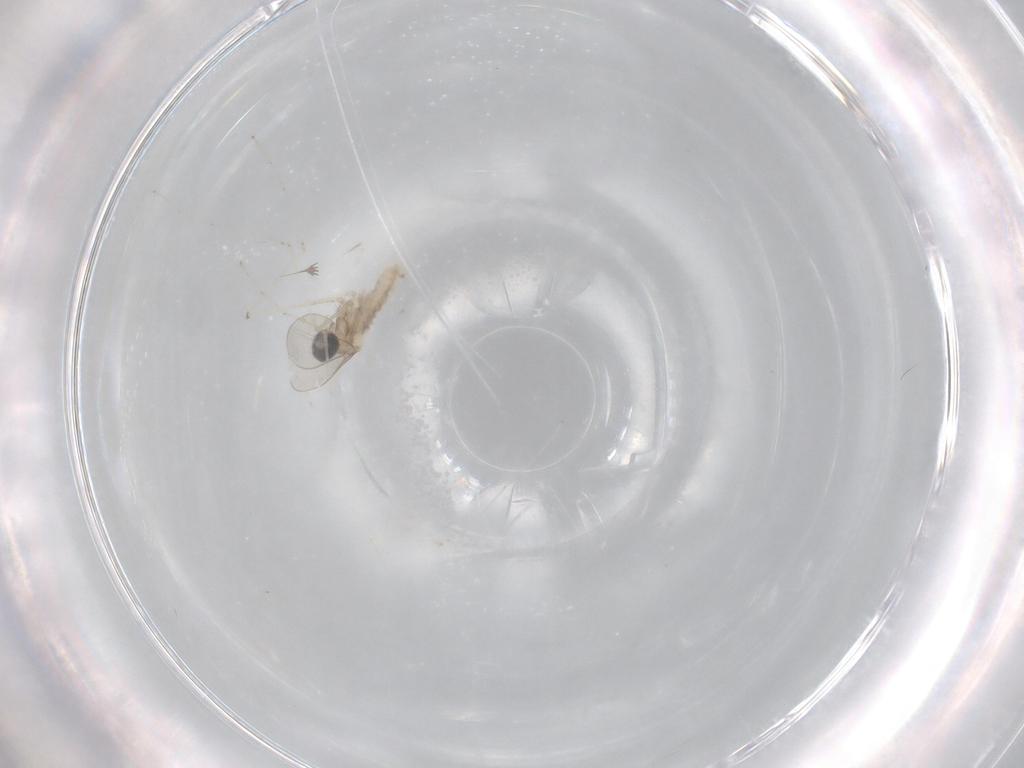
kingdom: Animalia
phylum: Arthropoda
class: Insecta
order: Diptera
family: Cecidomyiidae
